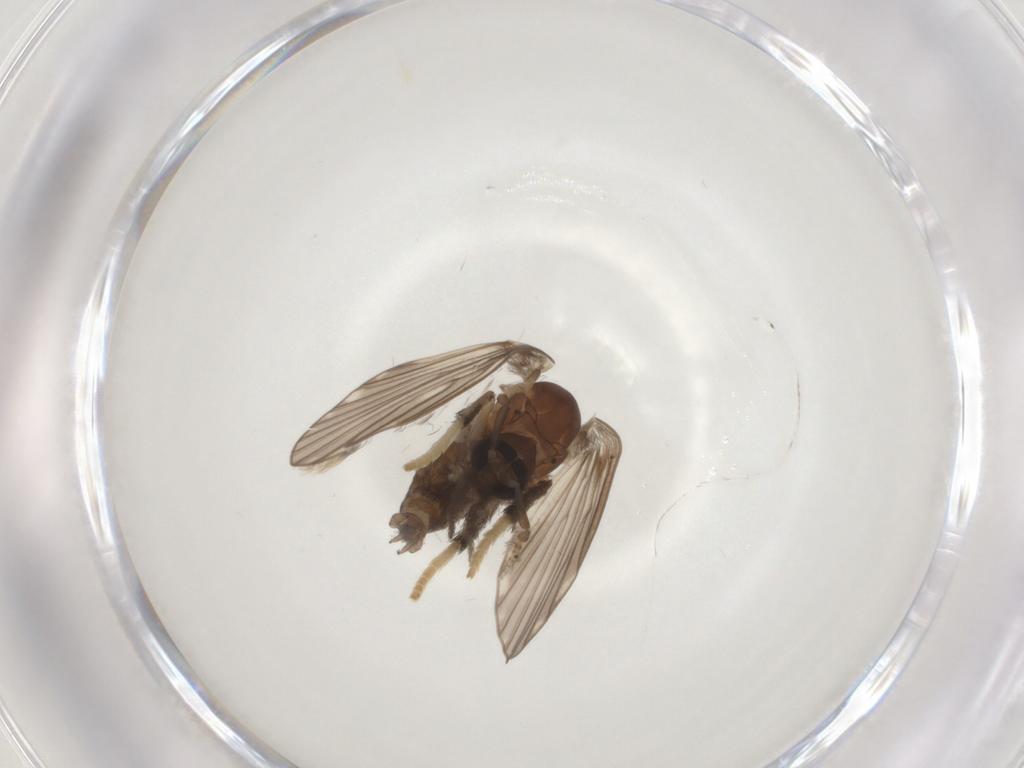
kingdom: Animalia
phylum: Arthropoda
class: Insecta
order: Diptera
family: Psychodidae
